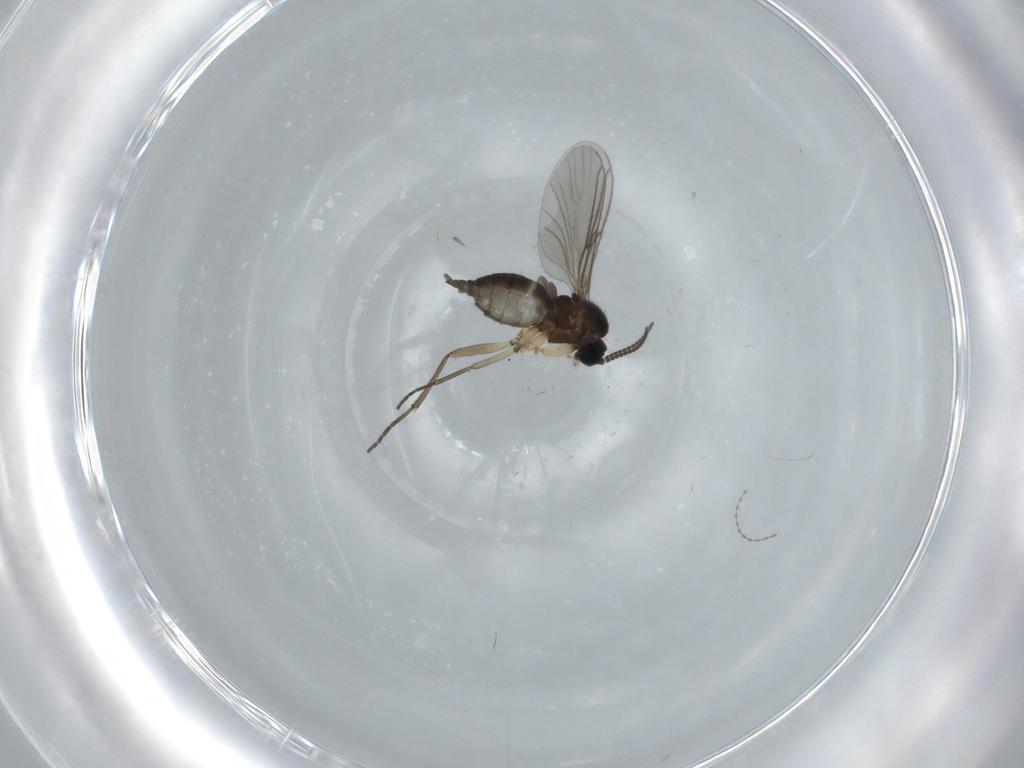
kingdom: Animalia
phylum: Arthropoda
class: Insecta
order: Diptera
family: Sciaridae
